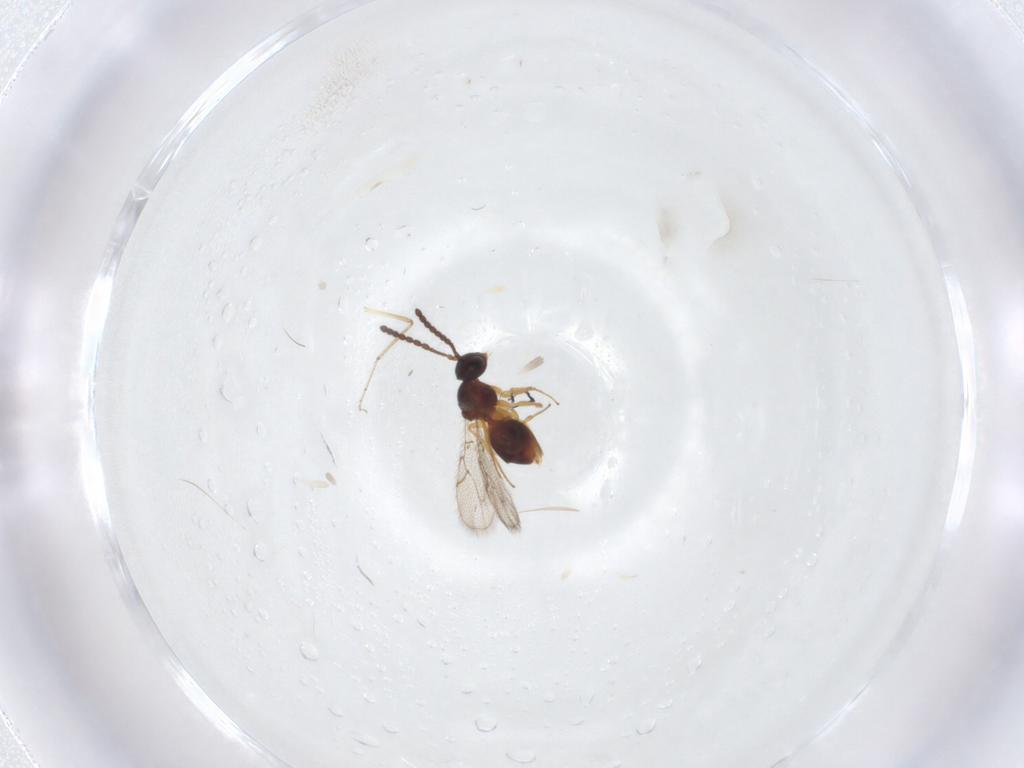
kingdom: Animalia
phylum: Arthropoda
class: Insecta
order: Hymenoptera
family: Figitidae
